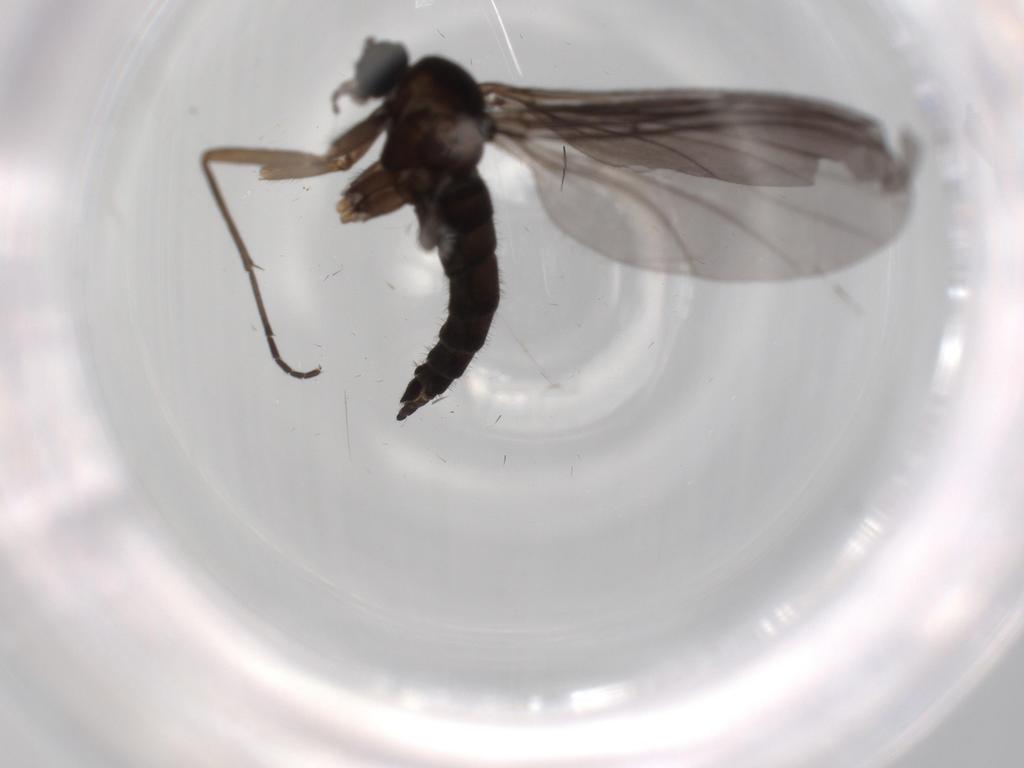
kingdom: Animalia
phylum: Arthropoda
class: Insecta
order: Diptera
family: Sciaridae
